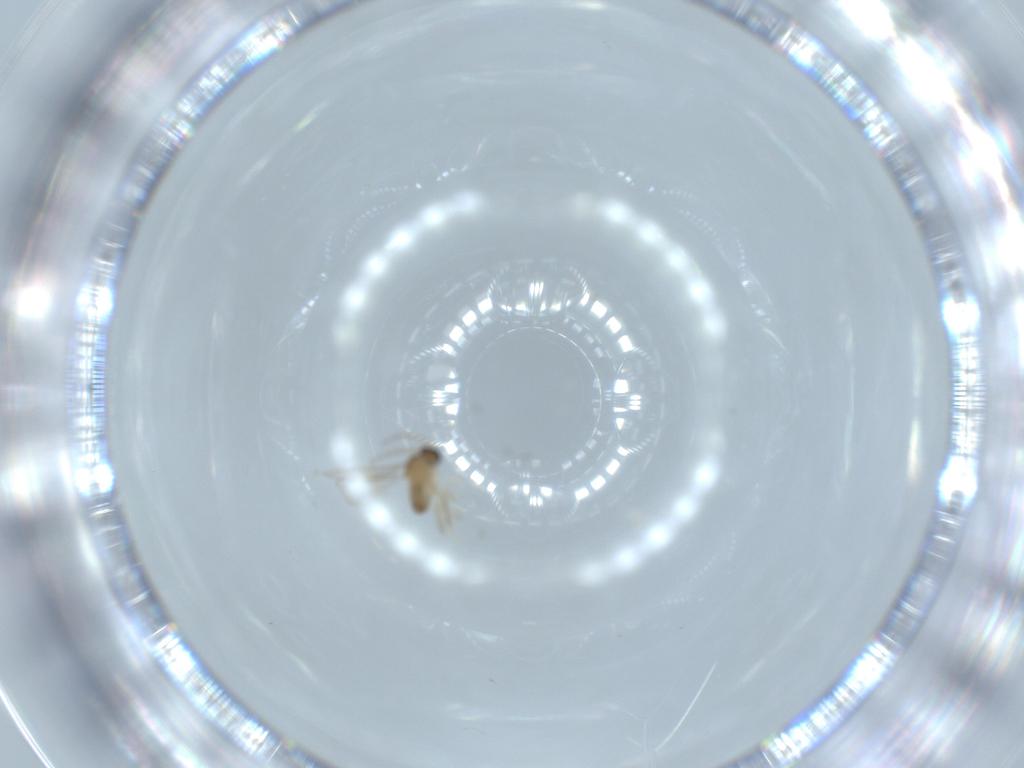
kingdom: Animalia
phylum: Arthropoda
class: Insecta
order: Diptera
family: Cecidomyiidae
